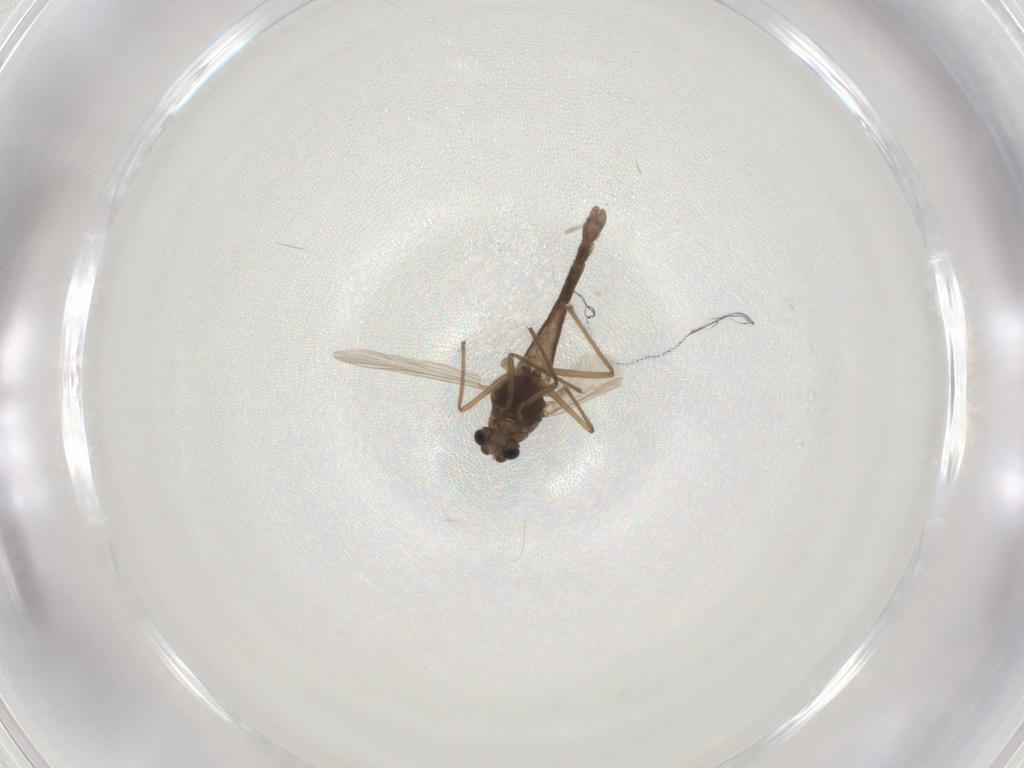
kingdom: Animalia
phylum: Arthropoda
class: Insecta
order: Diptera
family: Chironomidae
